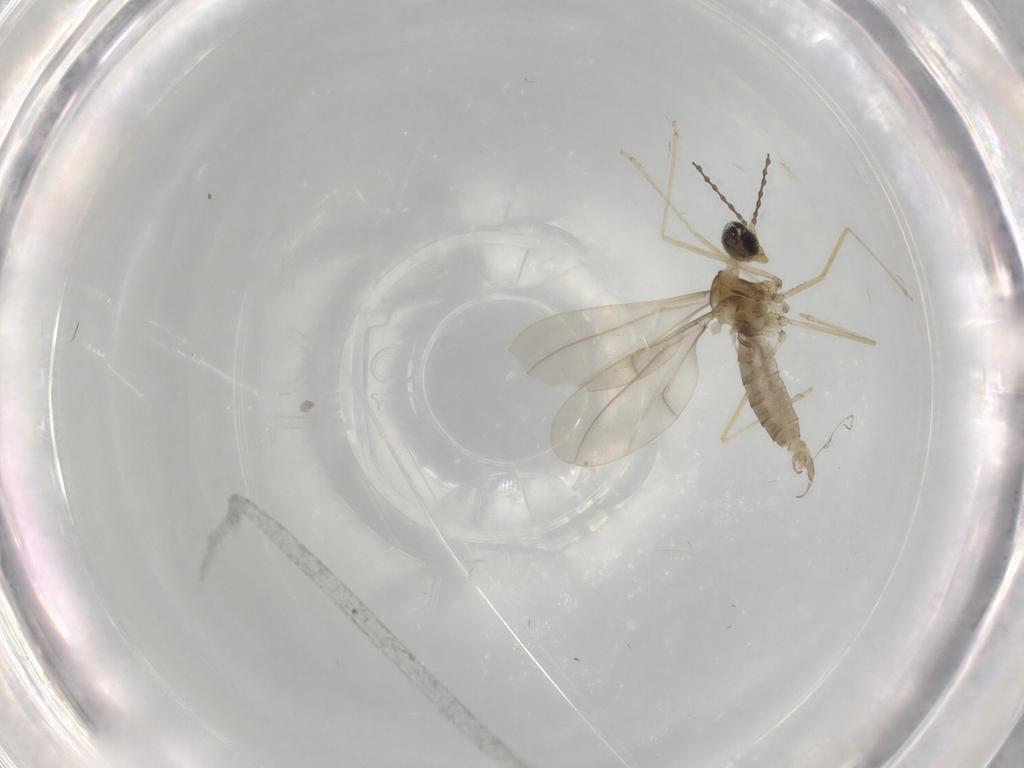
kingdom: Animalia
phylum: Arthropoda
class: Insecta
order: Diptera
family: Cecidomyiidae
